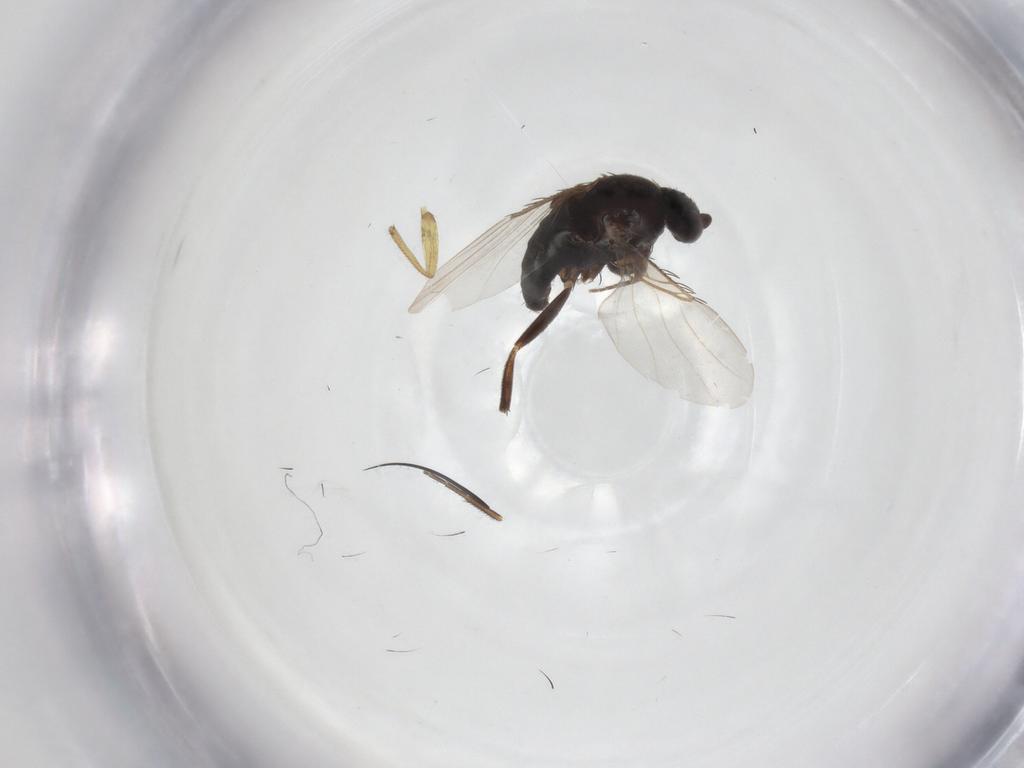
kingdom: Animalia
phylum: Arthropoda
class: Insecta
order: Diptera
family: Phoridae
